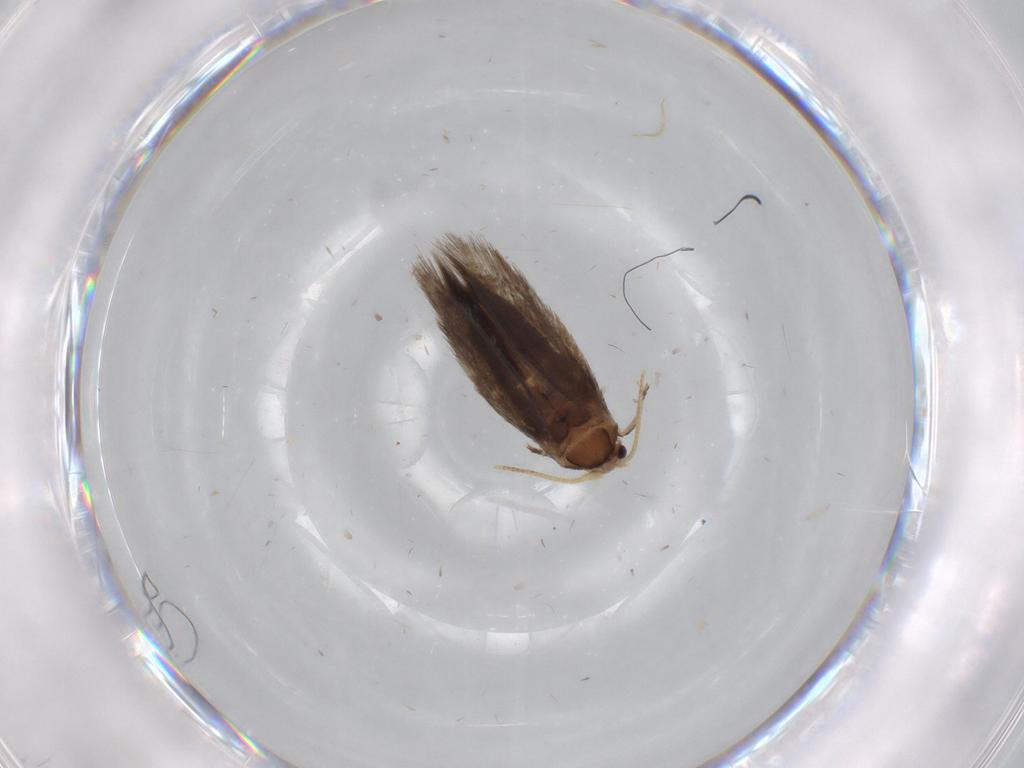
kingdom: Animalia
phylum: Arthropoda
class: Insecta
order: Lepidoptera
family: Nepticulidae
